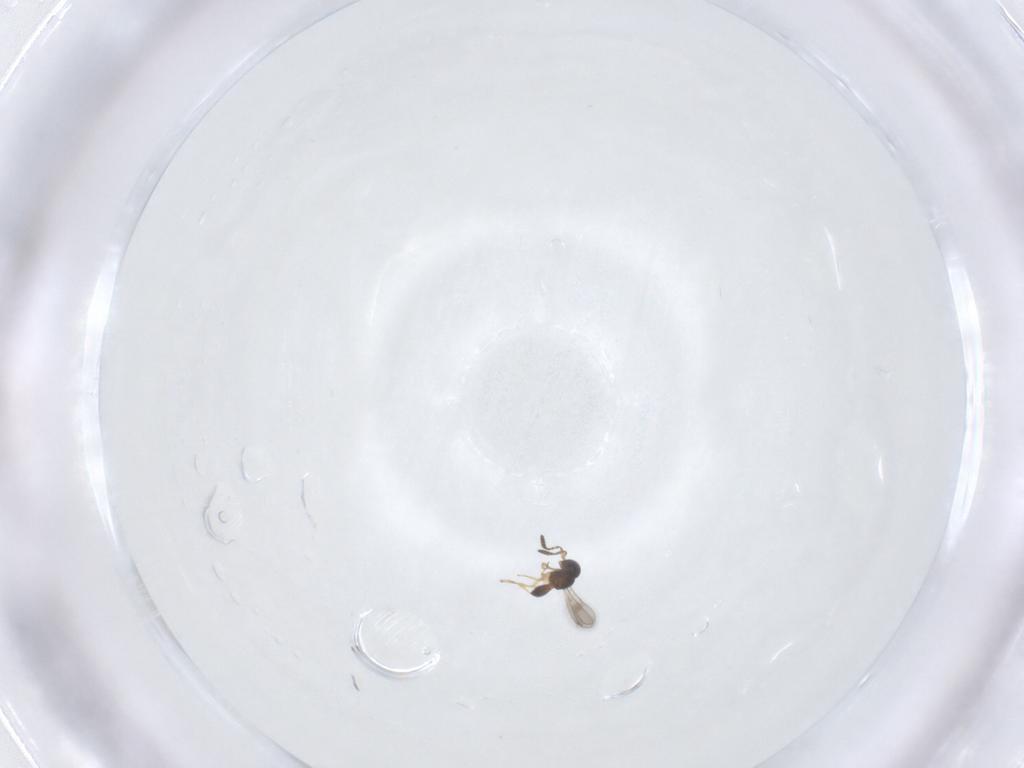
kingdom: Animalia
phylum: Arthropoda
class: Insecta
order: Hymenoptera
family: Scelionidae
